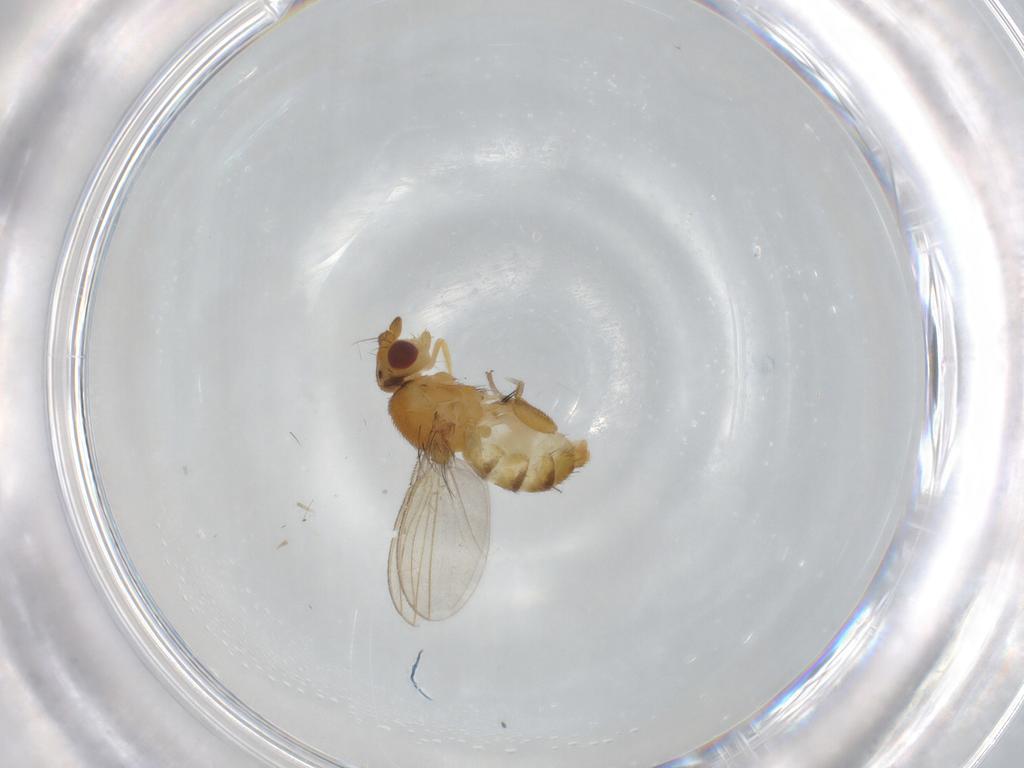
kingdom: Animalia
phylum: Arthropoda
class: Insecta
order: Diptera
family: Milichiidae
